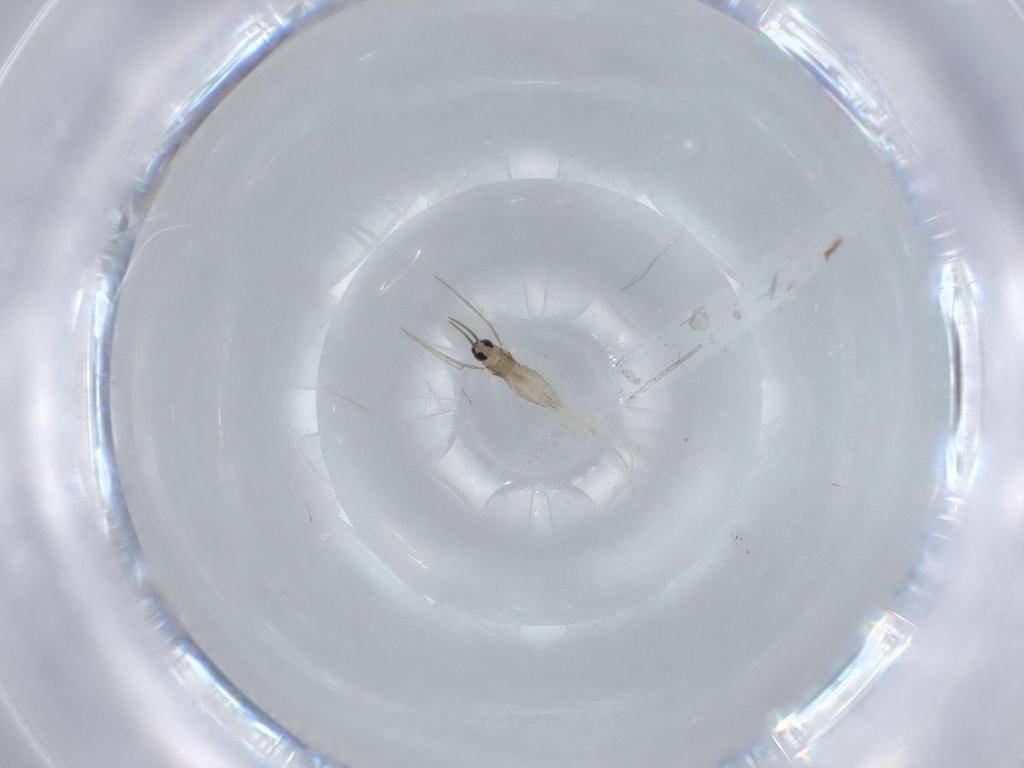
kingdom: Animalia
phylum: Arthropoda
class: Insecta
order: Diptera
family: Cecidomyiidae
